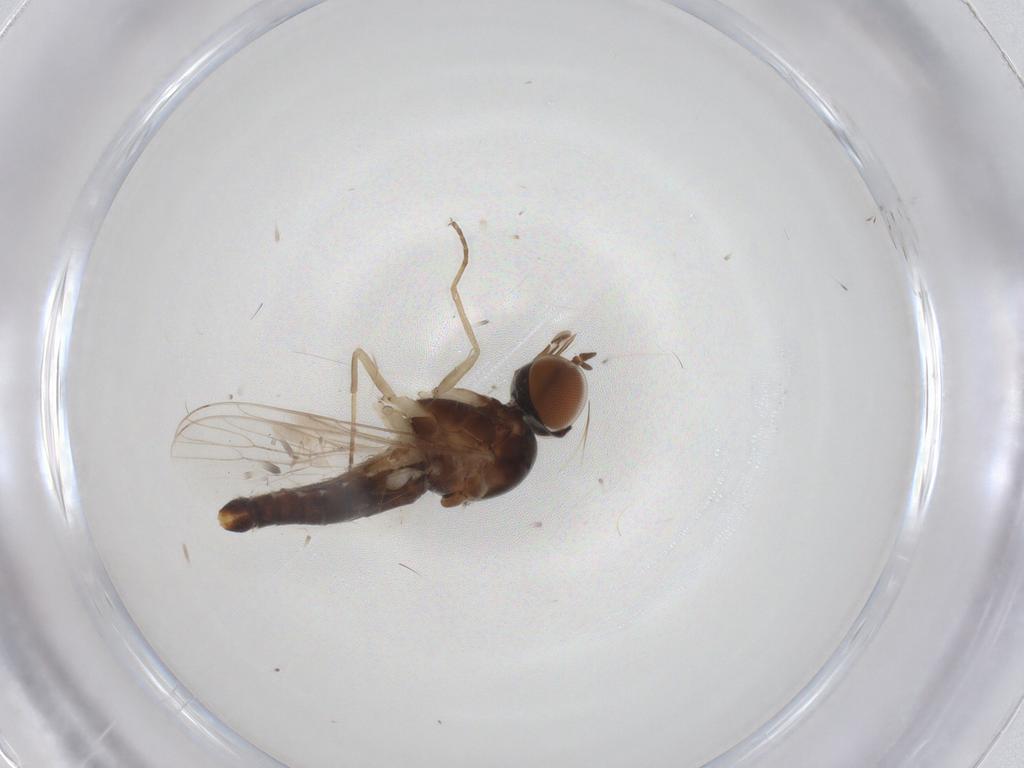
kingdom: Animalia
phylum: Arthropoda
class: Insecta
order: Diptera
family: Scenopinidae
